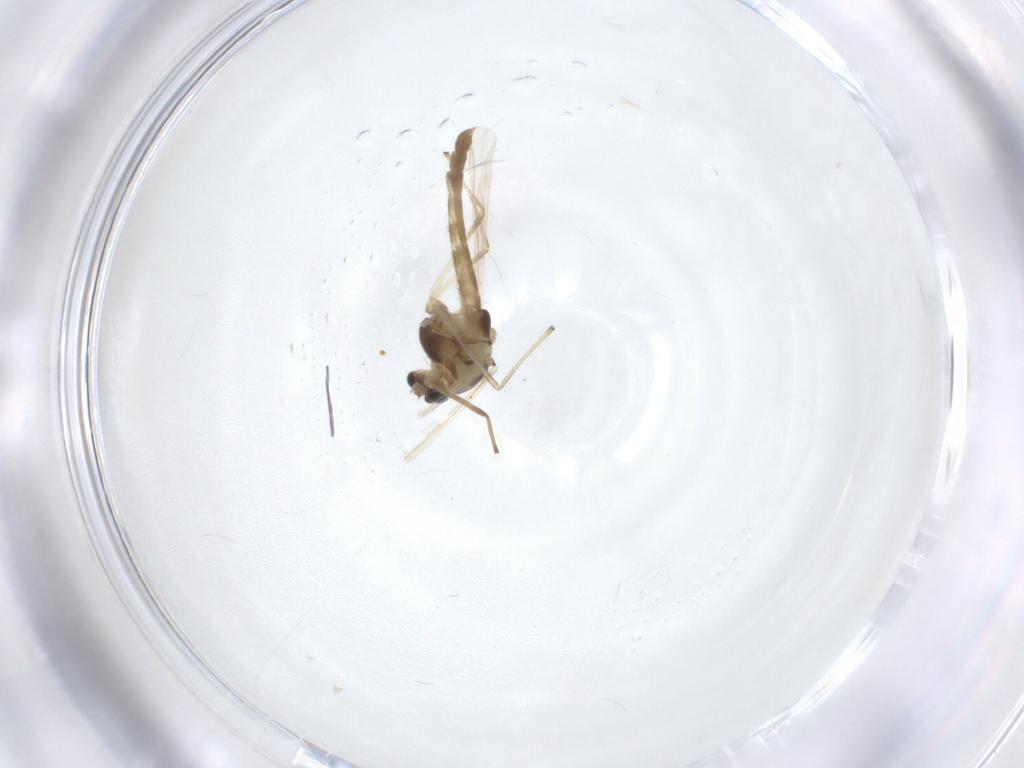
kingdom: Animalia
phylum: Arthropoda
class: Insecta
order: Diptera
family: Chironomidae
